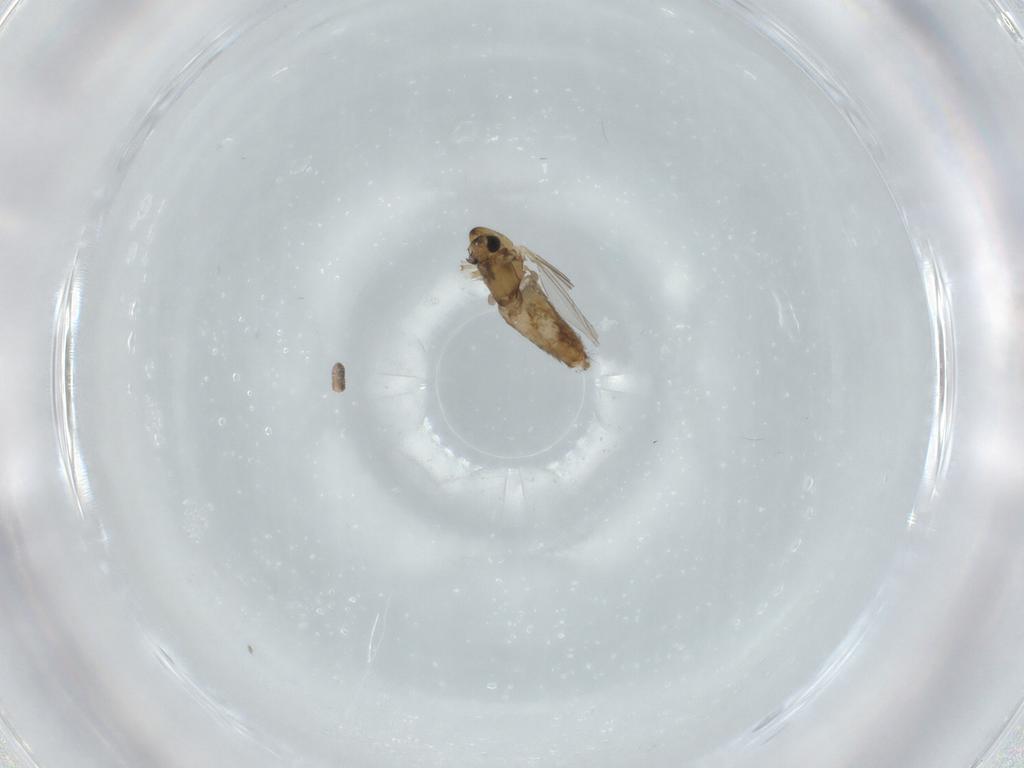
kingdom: Animalia
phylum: Arthropoda
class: Insecta
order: Diptera
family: Chironomidae
